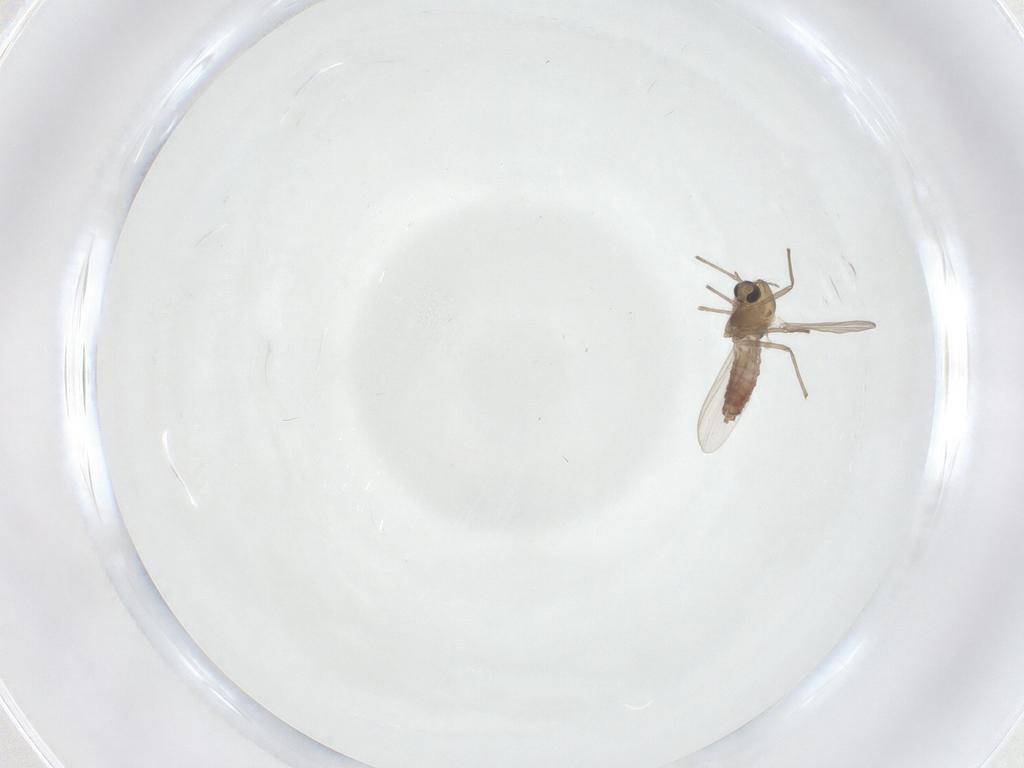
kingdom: Animalia
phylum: Arthropoda
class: Insecta
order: Diptera
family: Chironomidae
